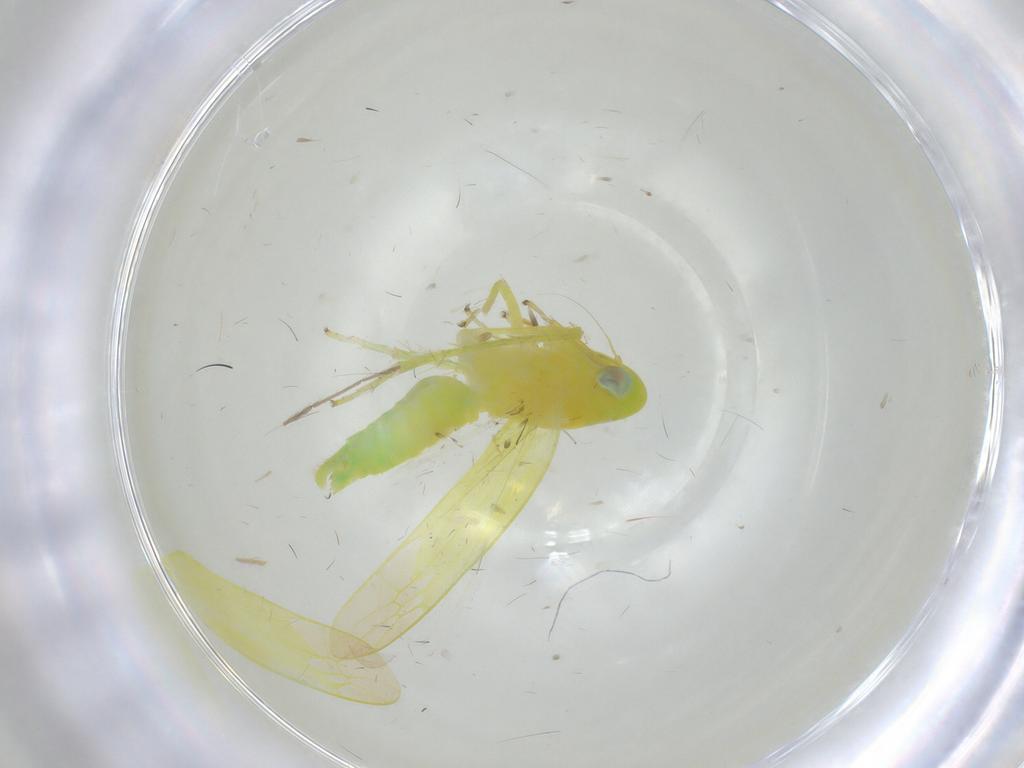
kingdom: Animalia
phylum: Arthropoda
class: Insecta
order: Hemiptera
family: Cicadellidae
